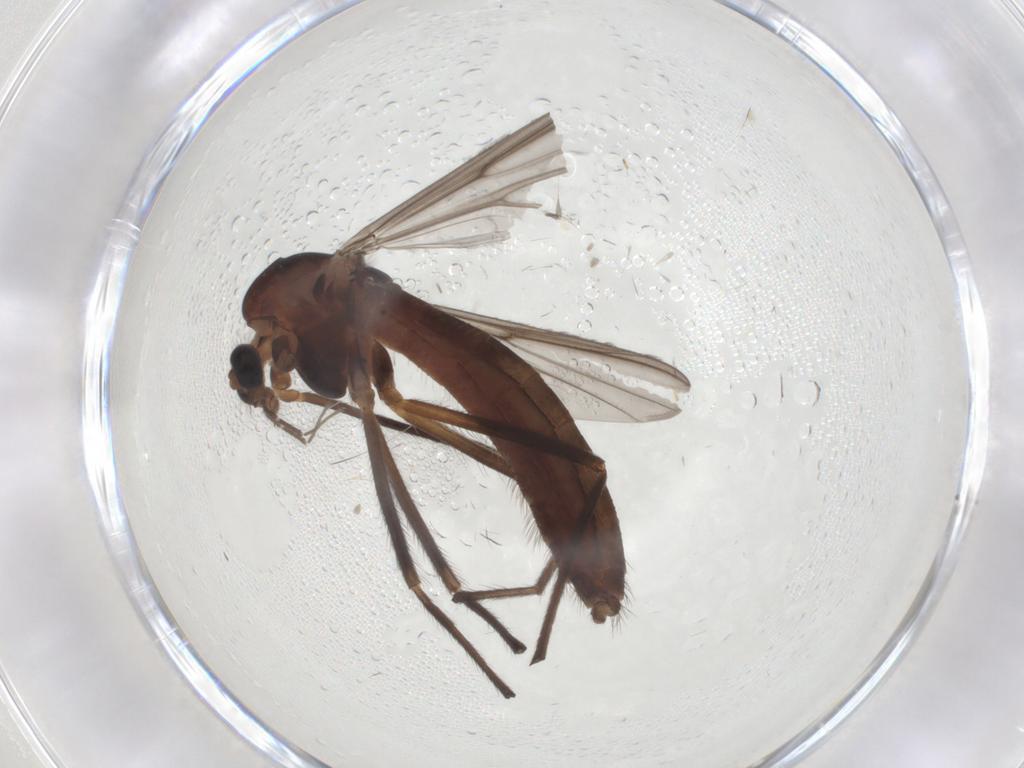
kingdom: Animalia
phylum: Arthropoda
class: Insecta
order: Diptera
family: Chironomidae
